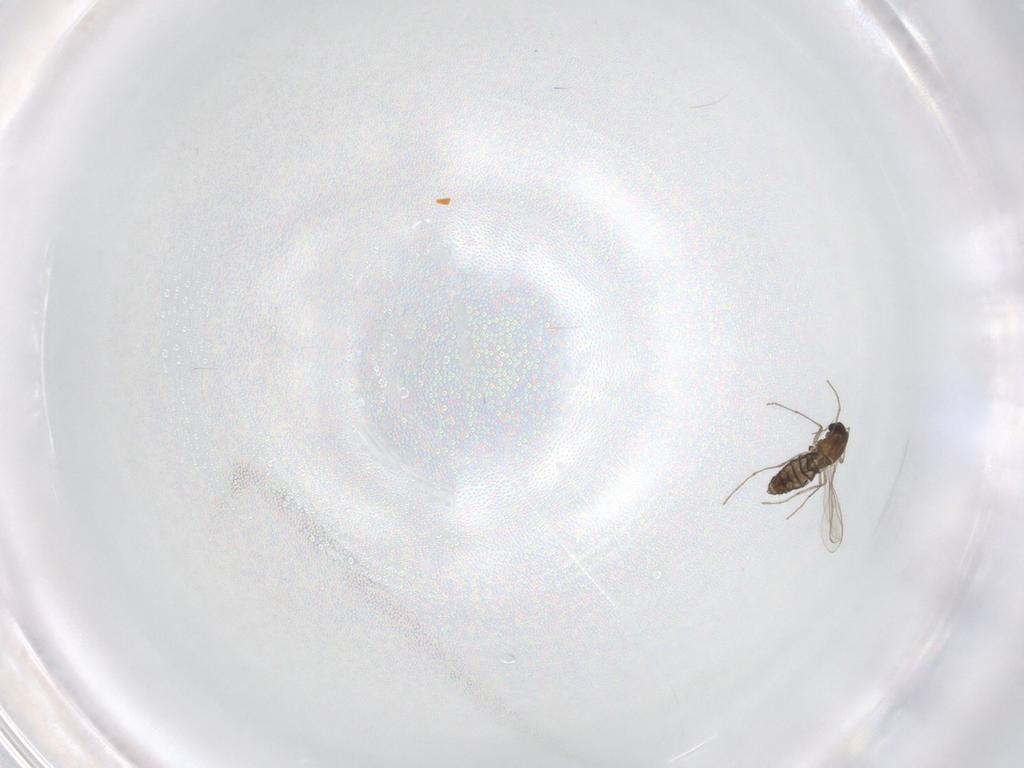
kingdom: Animalia
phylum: Arthropoda
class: Insecta
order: Diptera
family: Chironomidae
